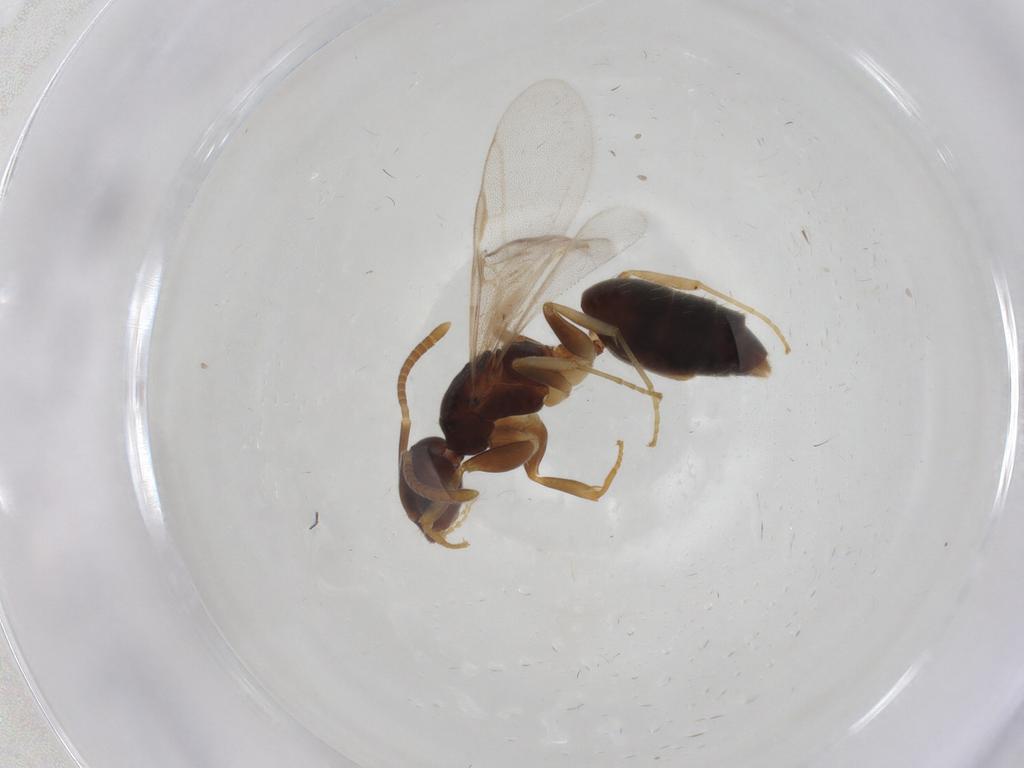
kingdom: Animalia
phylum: Arthropoda
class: Insecta
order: Hymenoptera
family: Formicidae
